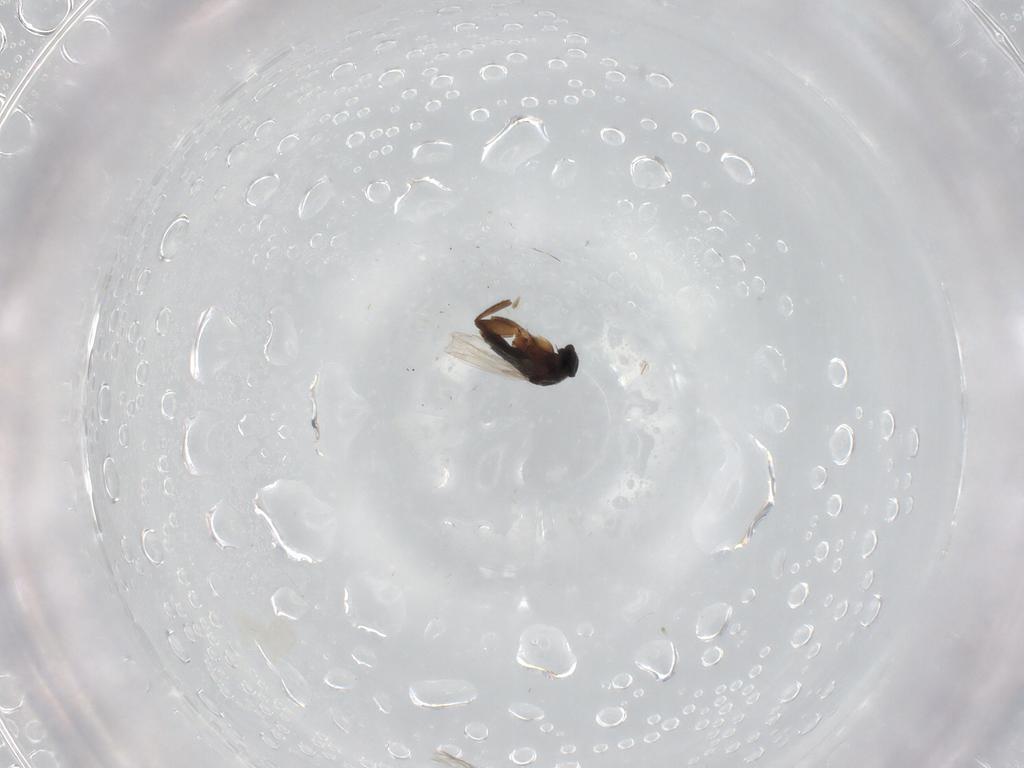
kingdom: Animalia
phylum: Arthropoda
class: Insecta
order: Diptera
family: Phoridae
